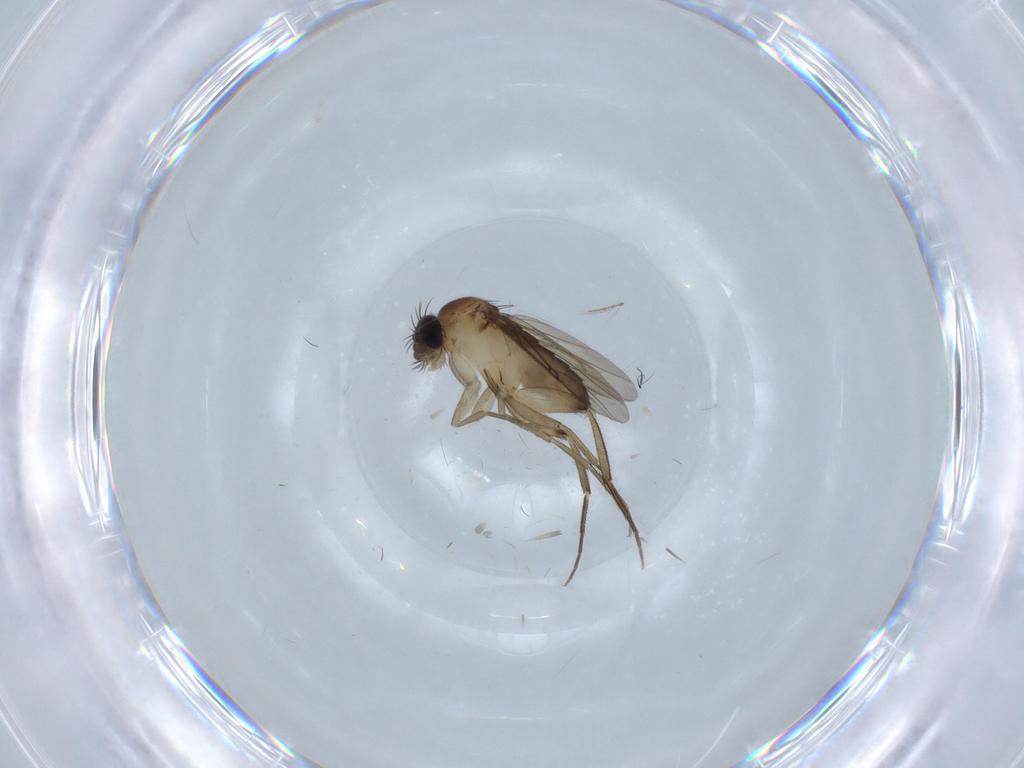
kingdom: Animalia
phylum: Arthropoda
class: Insecta
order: Diptera
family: Phoridae
